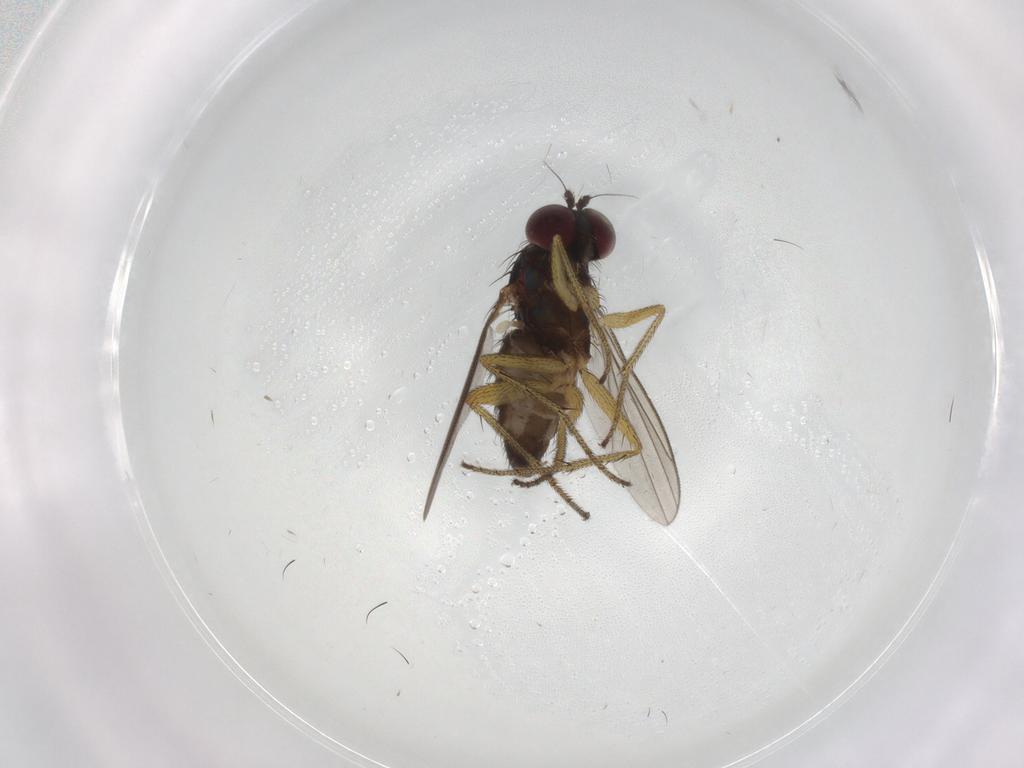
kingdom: Animalia
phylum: Arthropoda
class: Insecta
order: Diptera
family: Dolichopodidae
